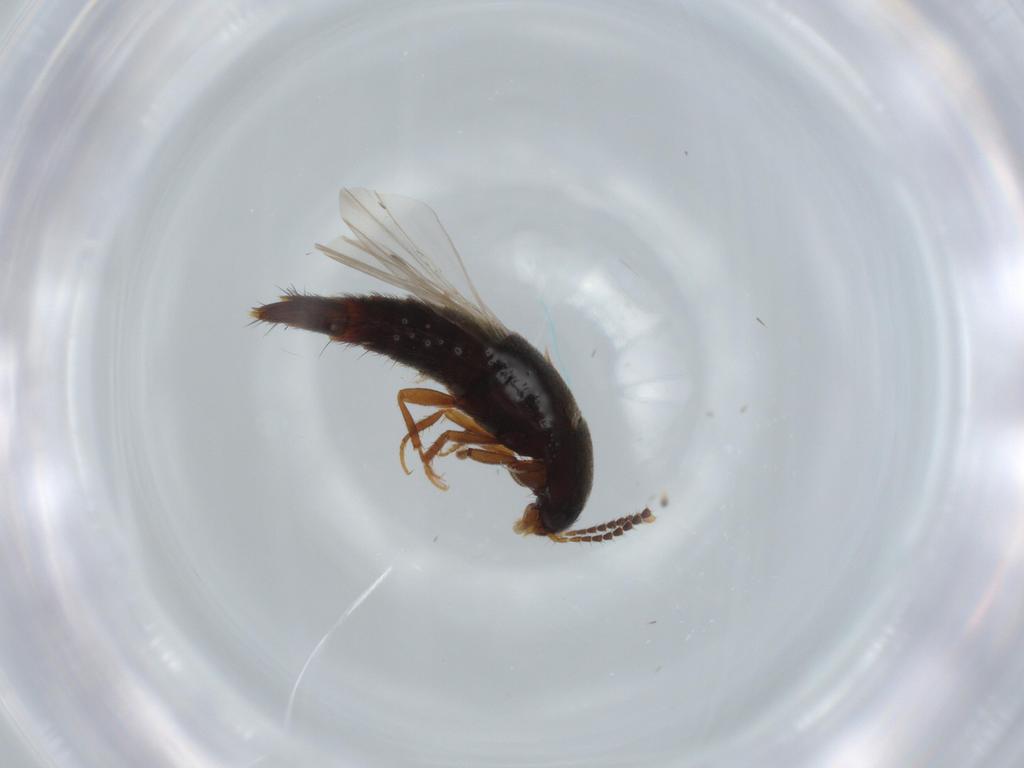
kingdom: Animalia
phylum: Arthropoda
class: Insecta
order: Coleoptera
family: Staphylinidae
